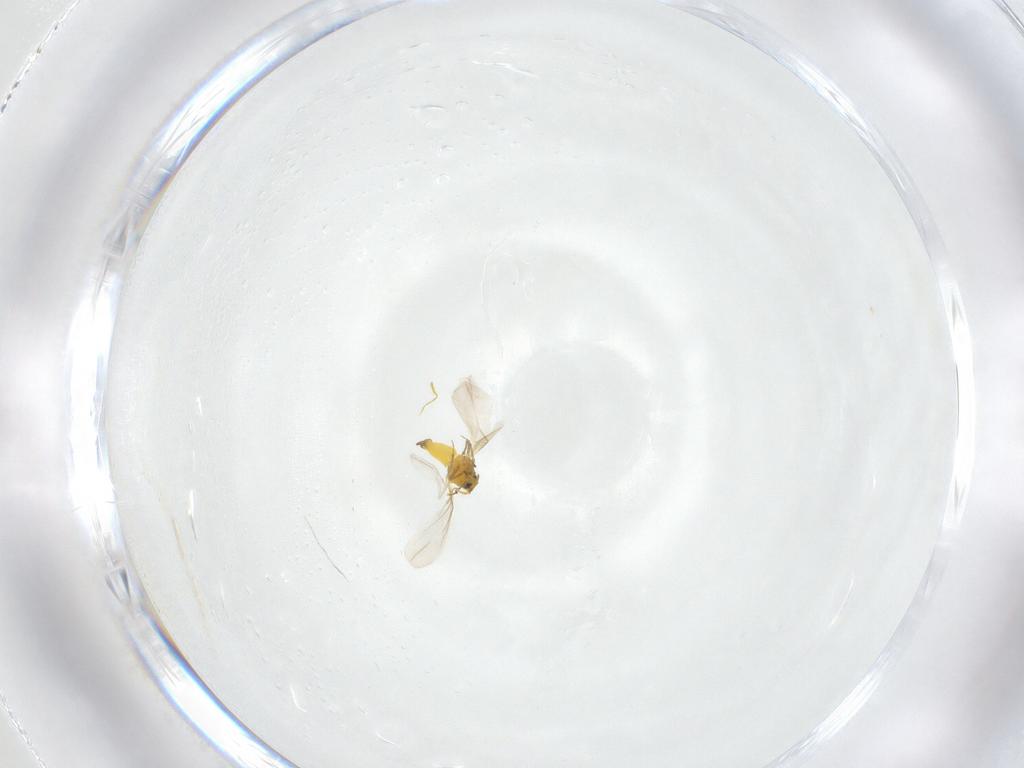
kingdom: Animalia
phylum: Arthropoda
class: Insecta
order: Hemiptera
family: Aleyrodidae
